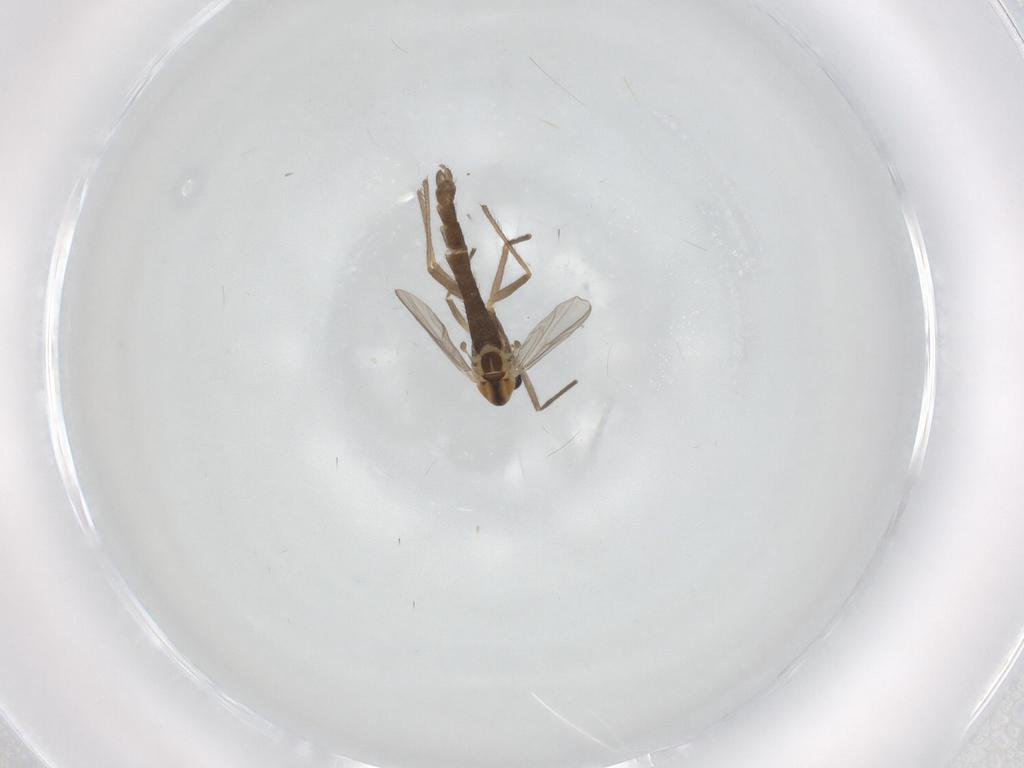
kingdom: Animalia
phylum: Arthropoda
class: Insecta
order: Diptera
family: Chironomidae
